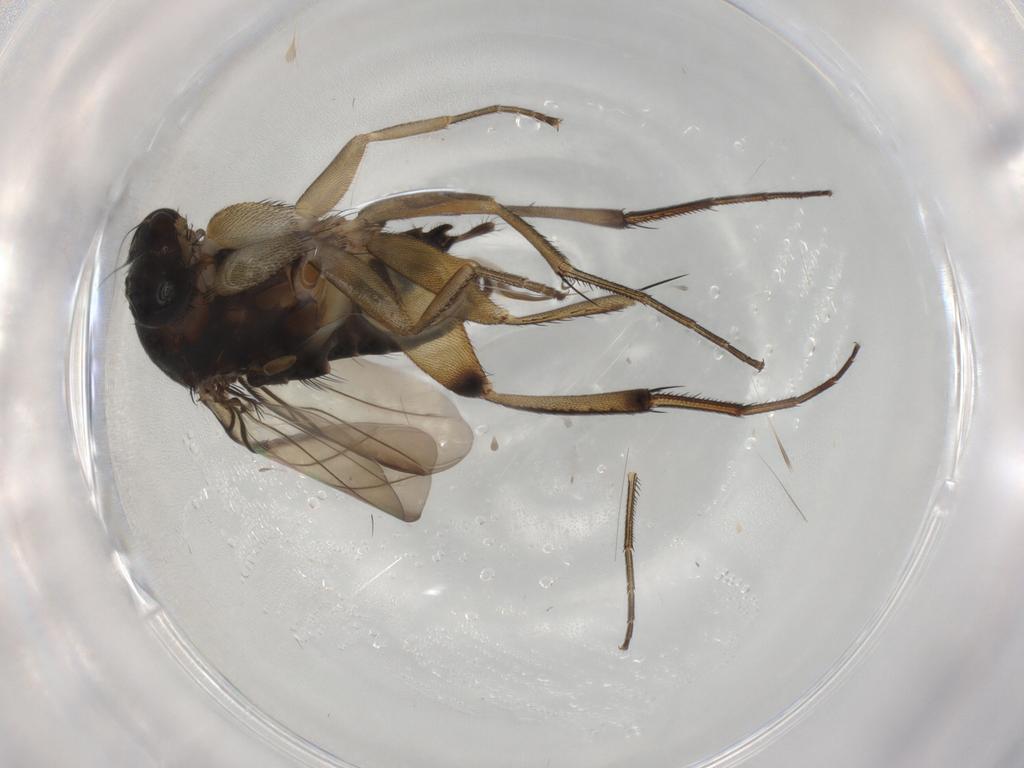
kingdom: Animalia
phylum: Arthropoda
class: Insecta
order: Diptera
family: Phoridae
